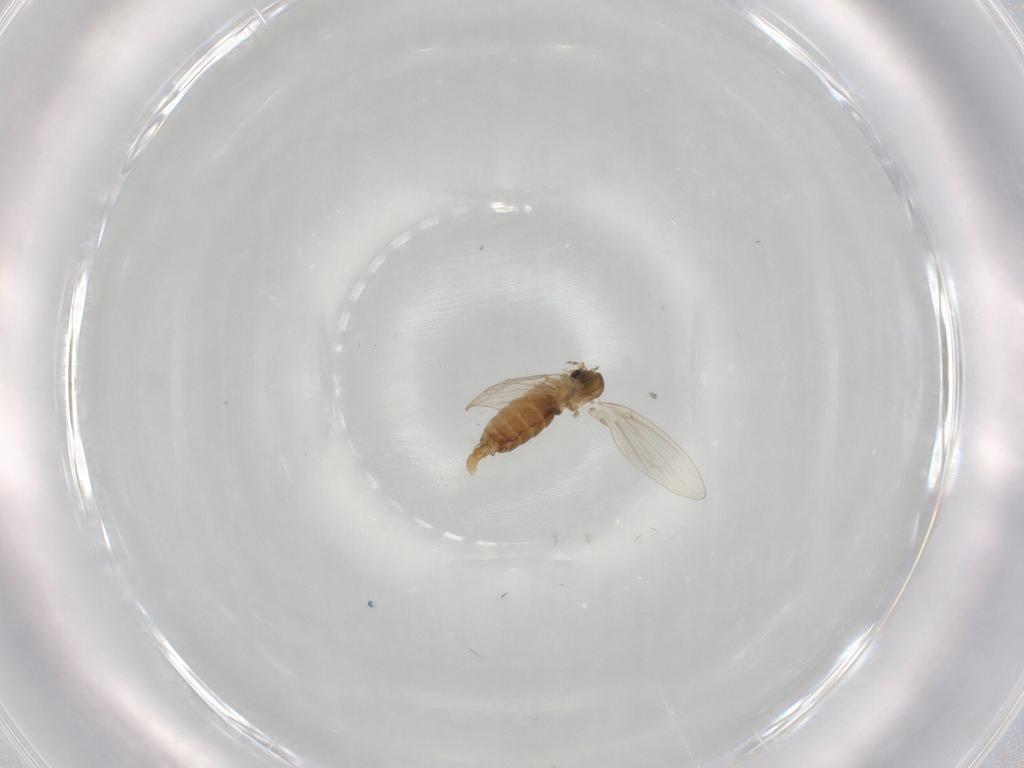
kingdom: Animalia
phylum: Arthropoda
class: Insecta
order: Diptera
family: Psychodidae
